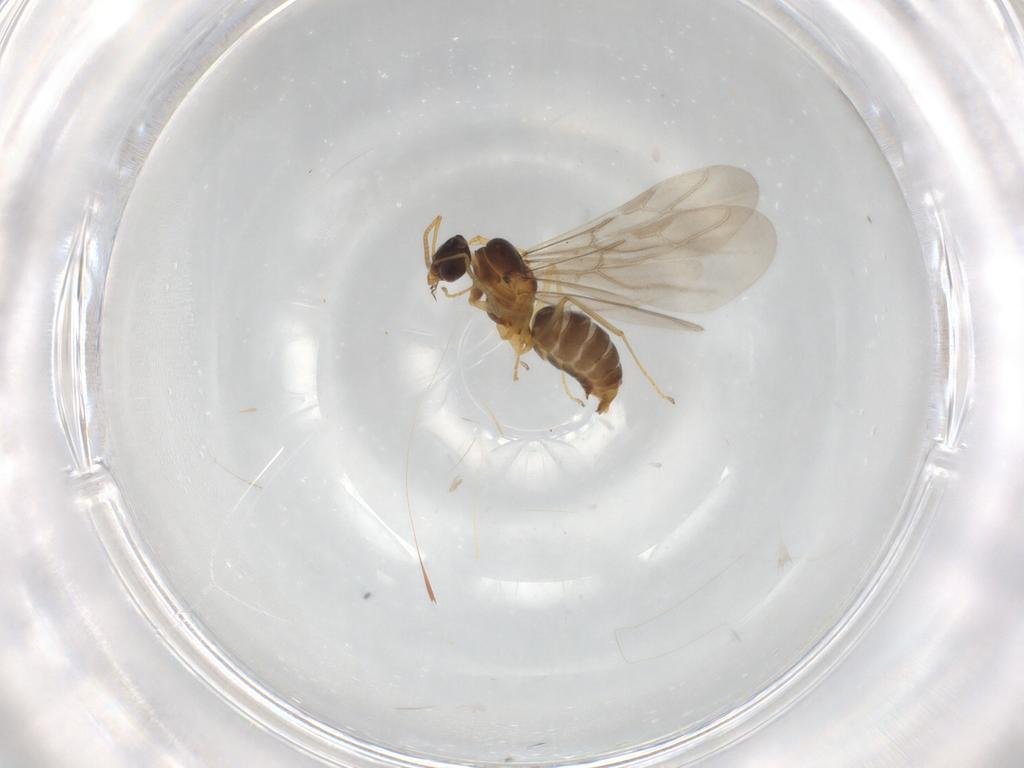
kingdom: Animalia
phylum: Arthropoda
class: Insecta
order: Hymenoptera
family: Formicidae
